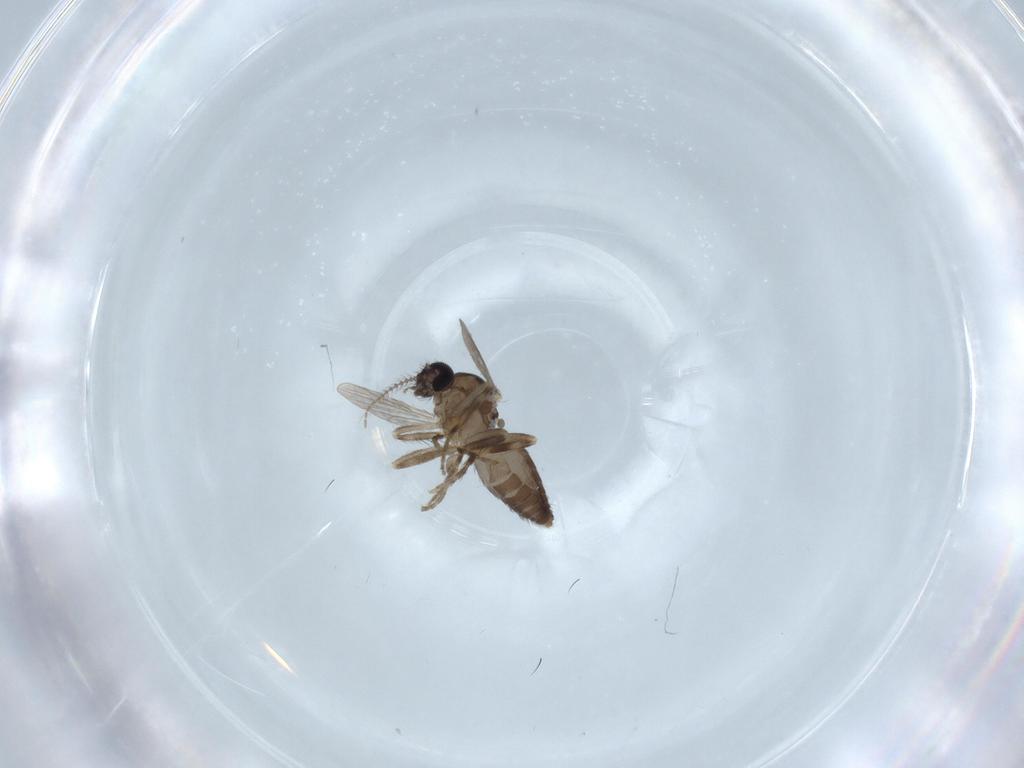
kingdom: Animalia
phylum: Arthropoda
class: Insecta
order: Diptera
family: Ceratopogonidae
